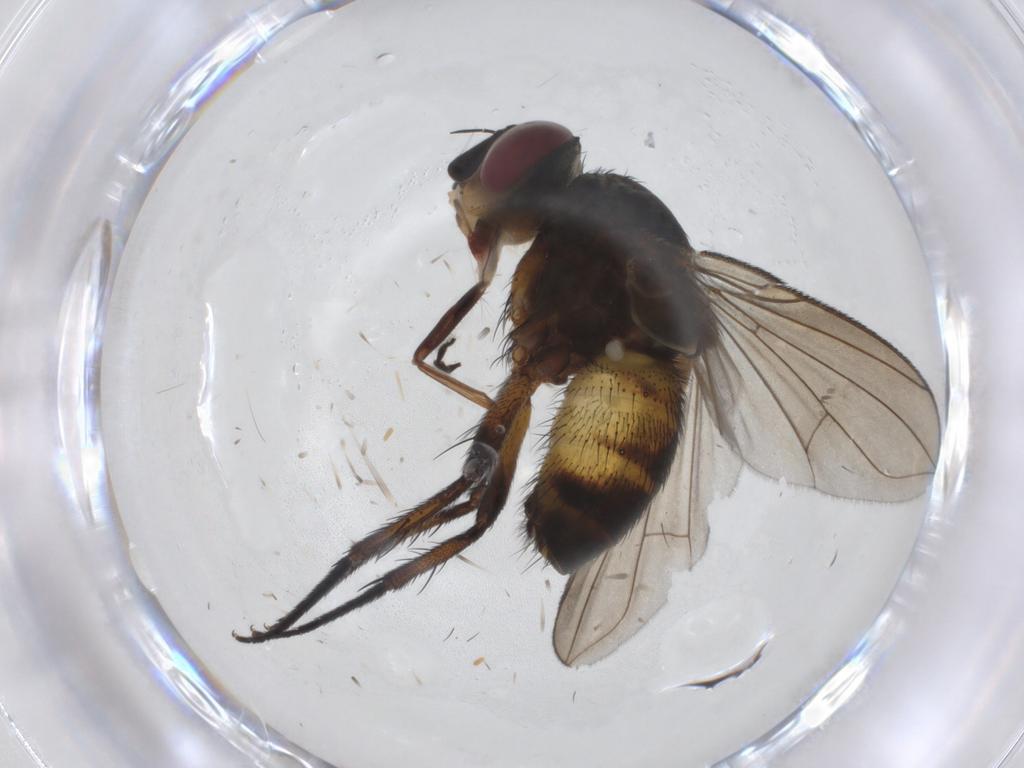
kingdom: Animalia
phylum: Arthropoda
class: Insecta
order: Diptera
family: Tachinidae
